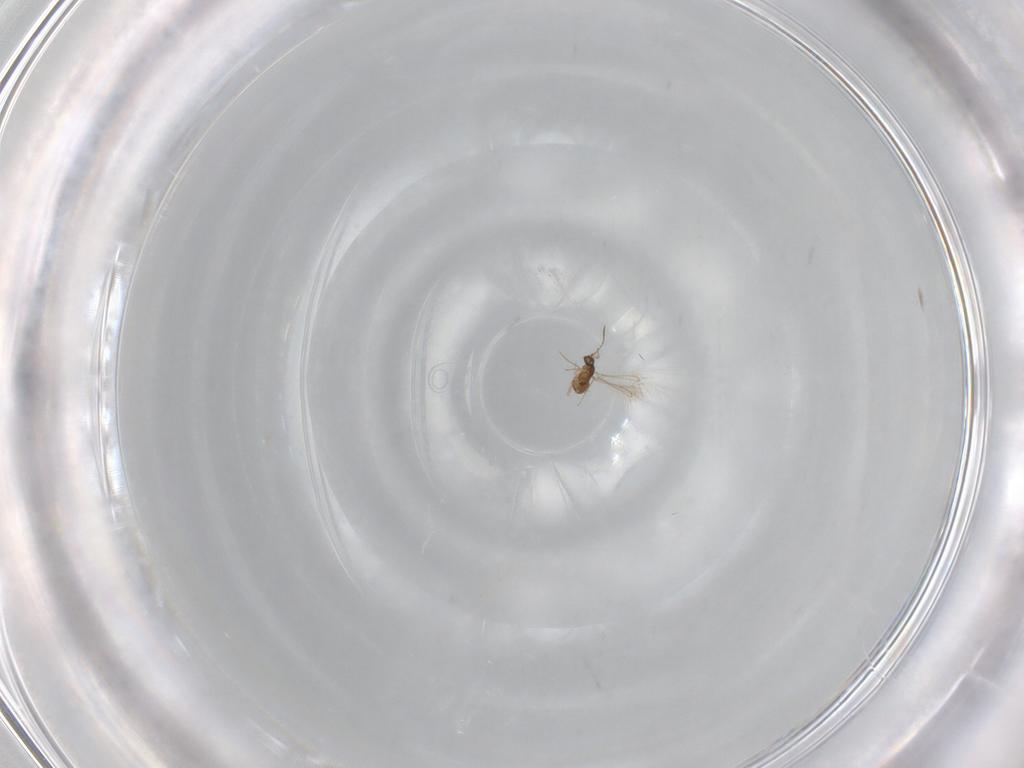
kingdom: Animalia
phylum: Arthropoda
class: Insecta
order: Hymenoptera
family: Mymaridae
